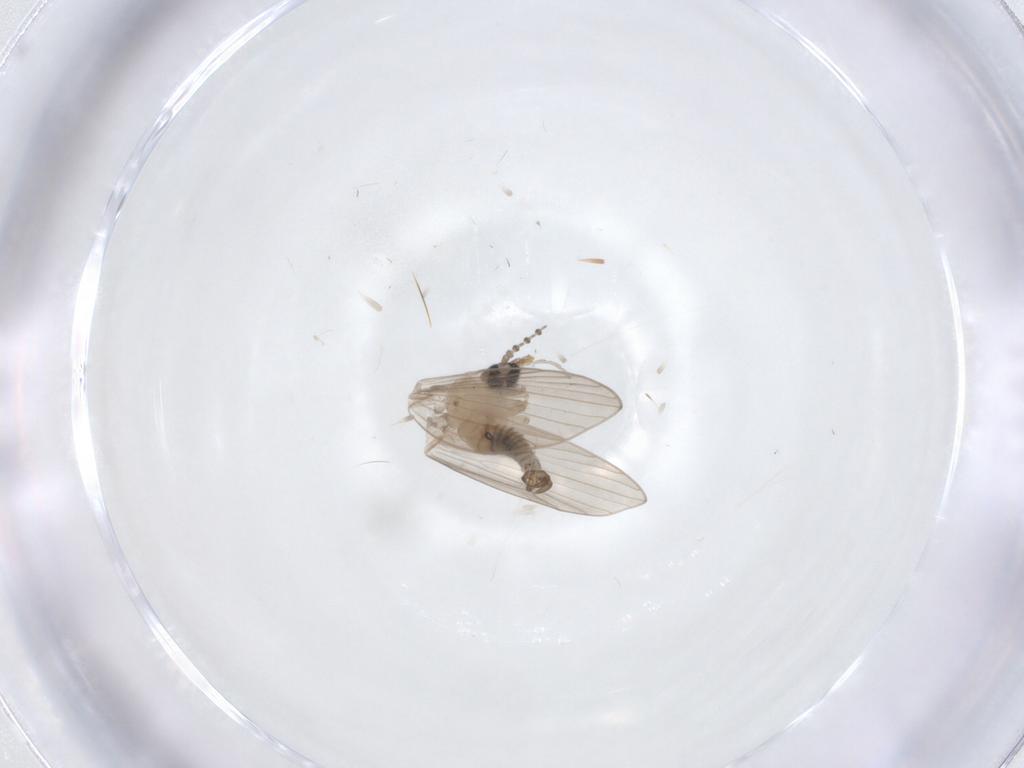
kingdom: Animalia
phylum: Arthropoda
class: Insecta
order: Diptera
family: Psychodidae
